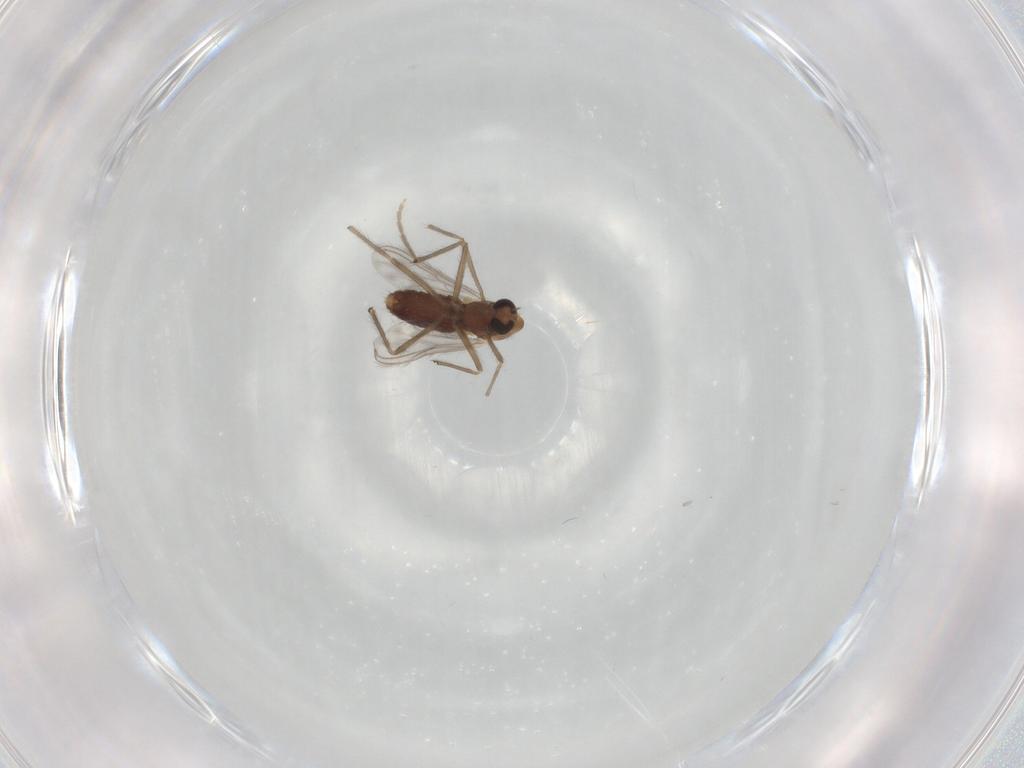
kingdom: Animalia
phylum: Arthropoda
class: Insecta
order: Diptera
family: Chironomidae
